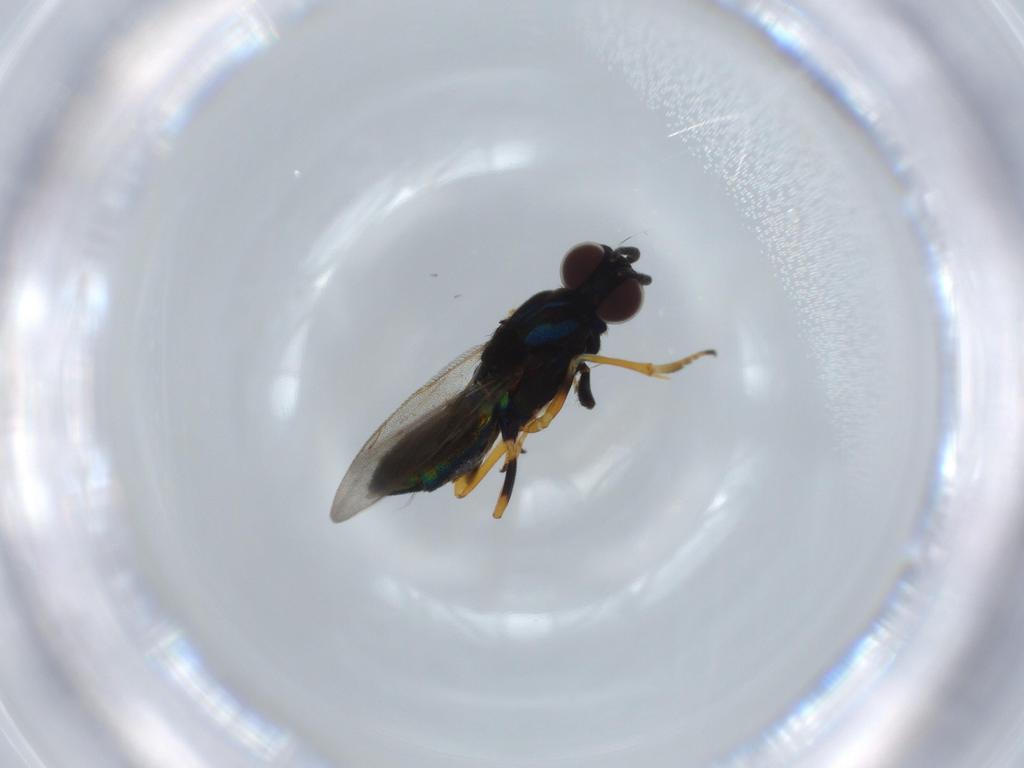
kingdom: Animalia
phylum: Arthropoda
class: Insecta
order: Hymenoptera
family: Eupelmidae
